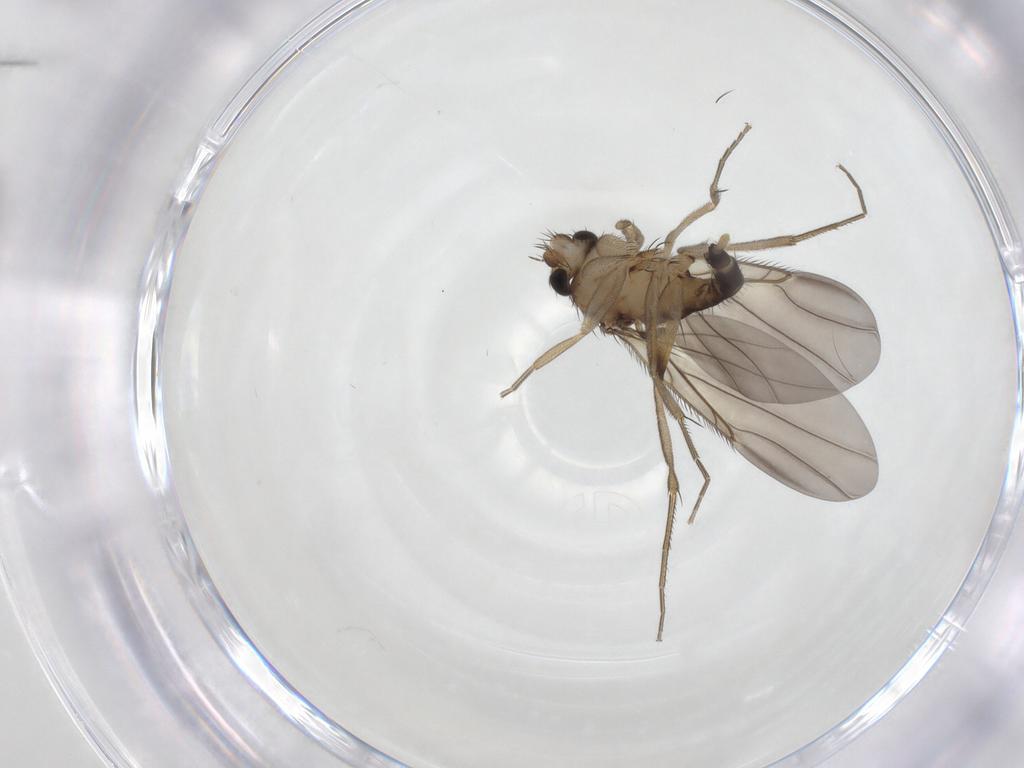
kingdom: Animalia
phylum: Arthropoda
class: Insecta
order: Diptera
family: Phoridae
